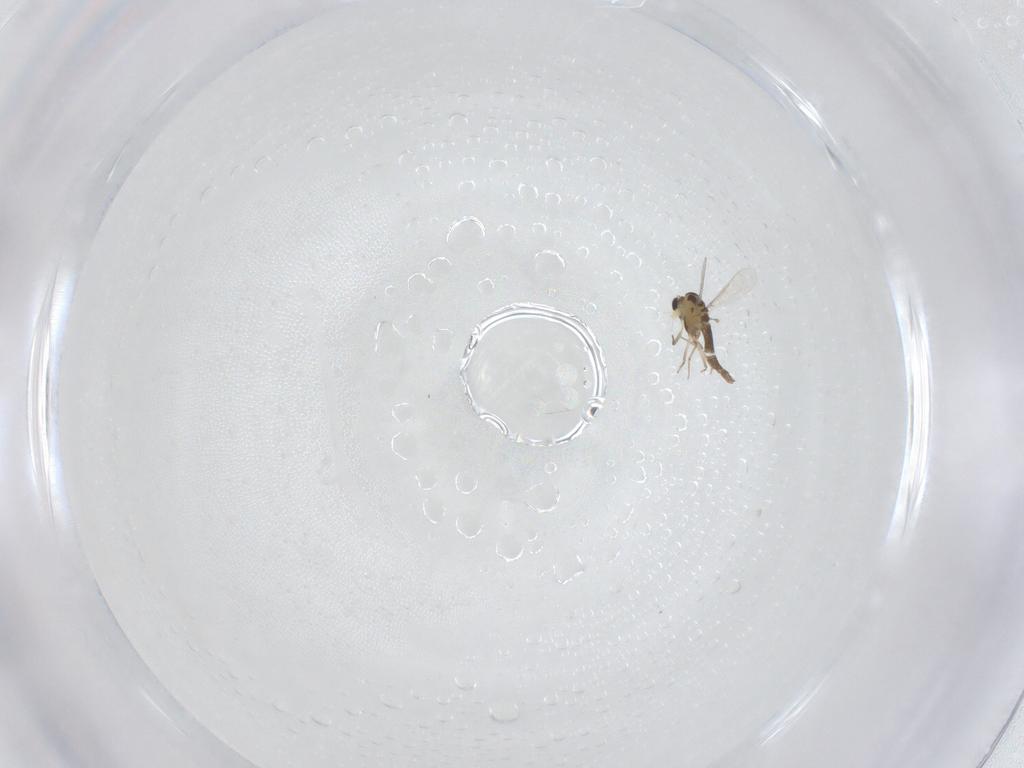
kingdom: Animalia
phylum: Arthropoda
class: Insecta
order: Diptera
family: Chironomidae
